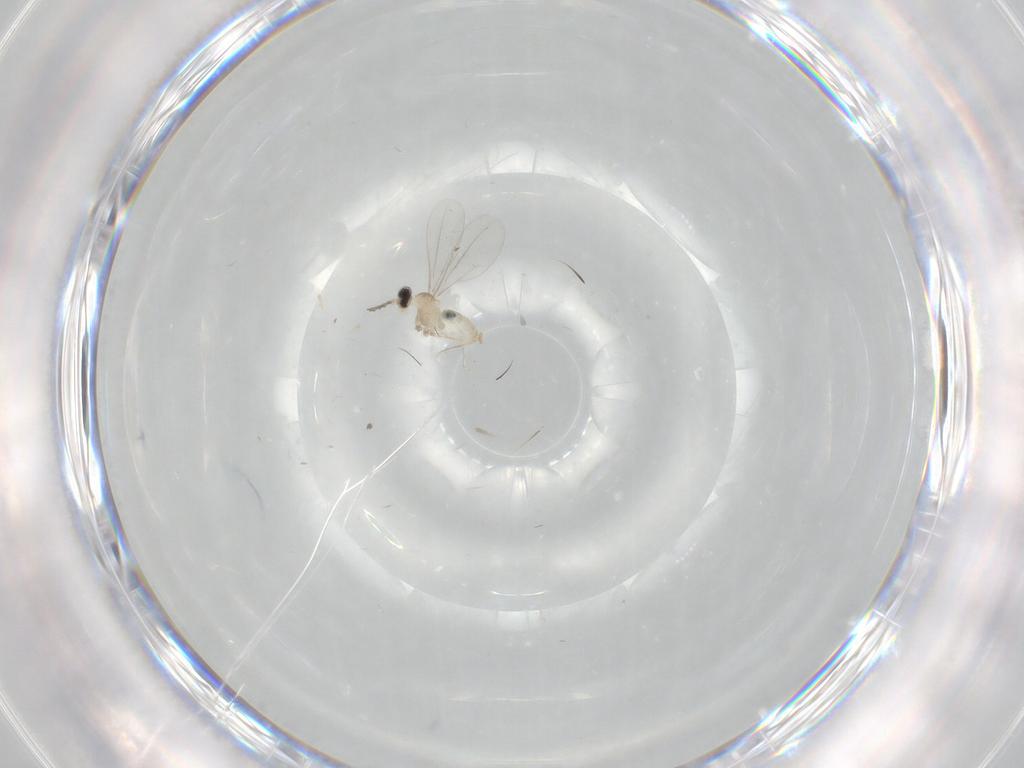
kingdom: Animalia
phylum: Arthropoda
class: Insecta
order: Diptera
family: Cecidomyiidae
